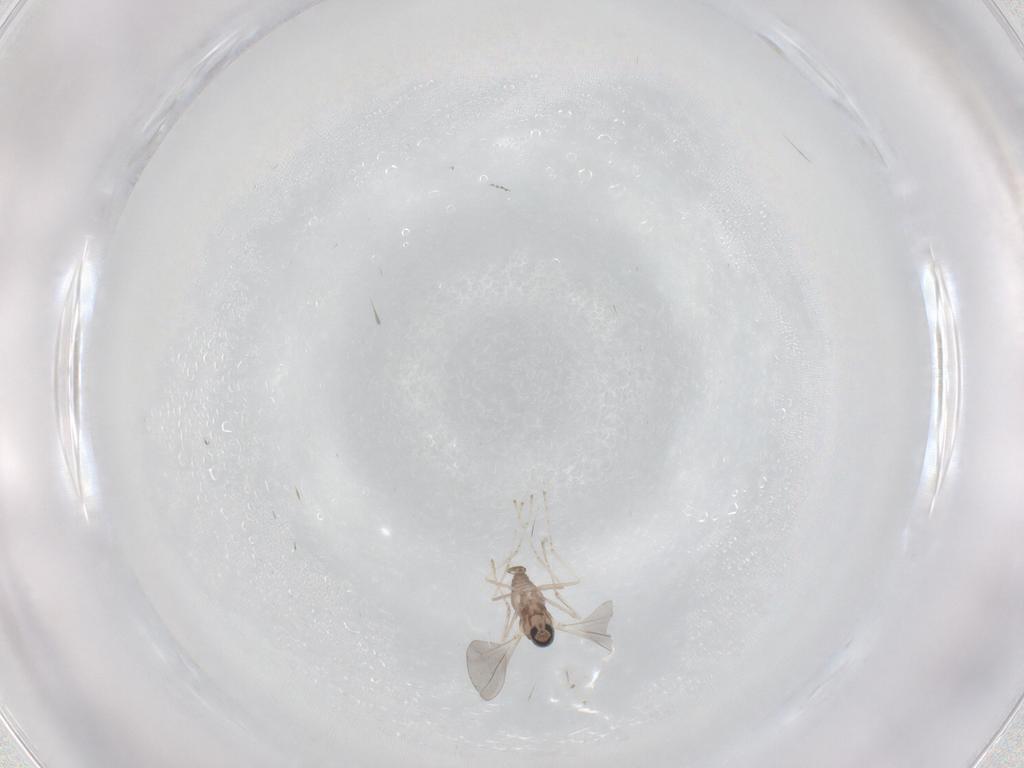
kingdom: Animalia
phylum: Arthropoda
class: Insecta
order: Diptera
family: Cecidomyiidae
